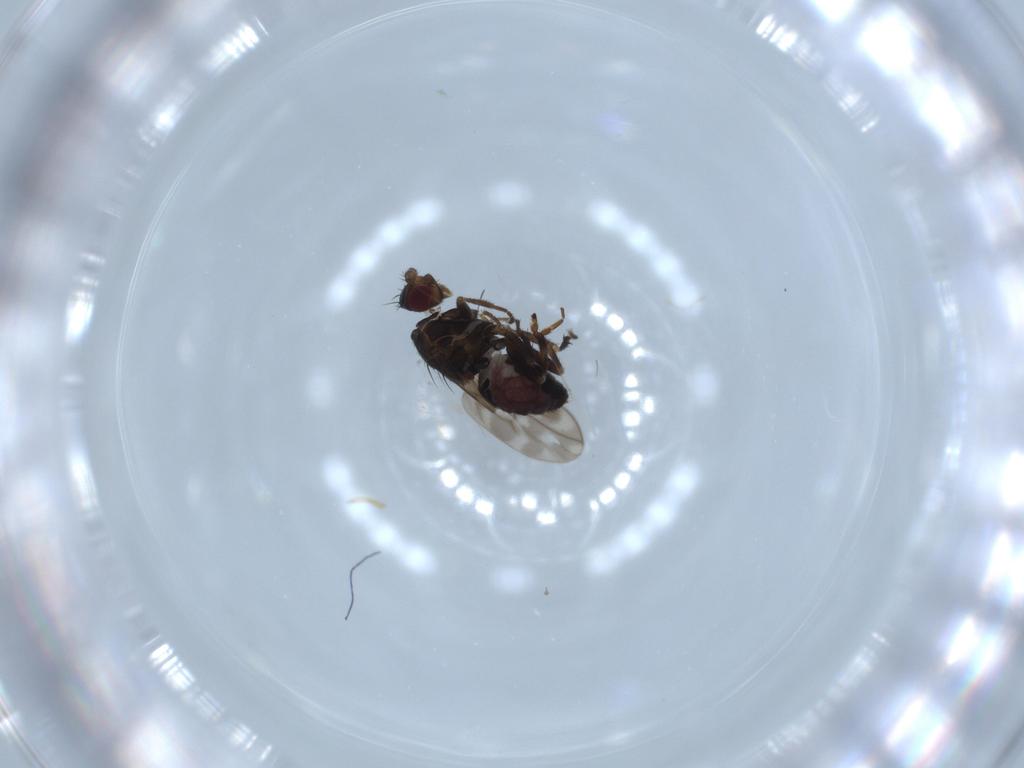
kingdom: Animalia
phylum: Arthropoda
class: Insecta
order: Diptera
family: Sphaeroceridae
